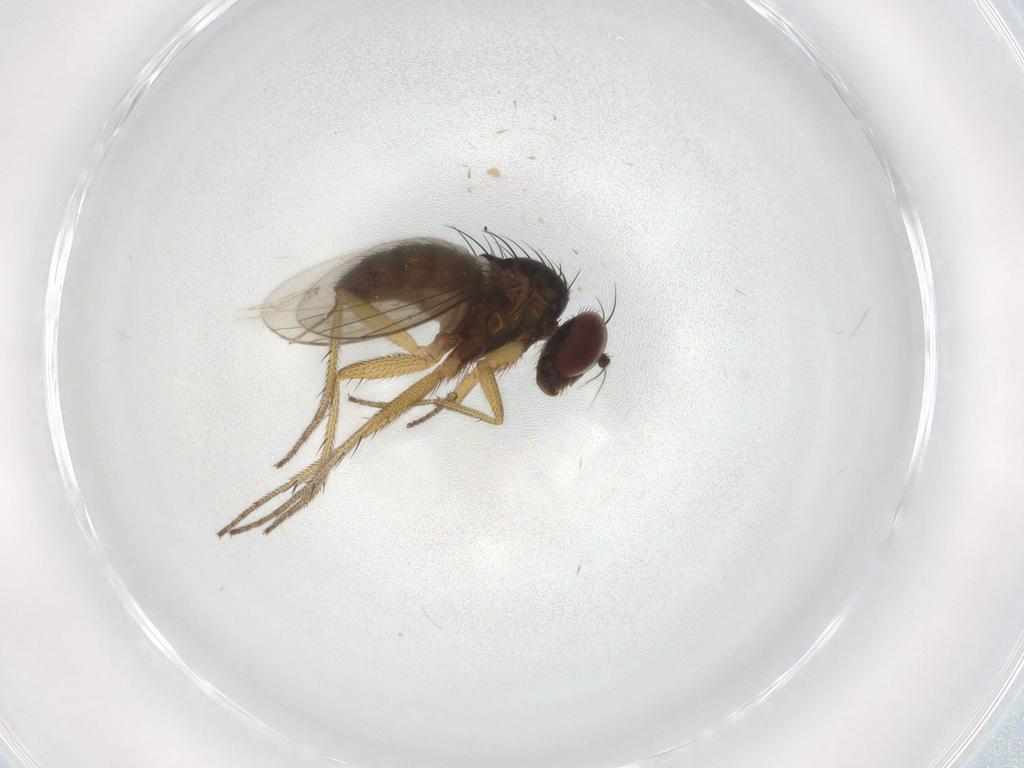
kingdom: Animalia
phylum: Arthropoda
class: Insecta
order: Diptera
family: Dolichopodidae
